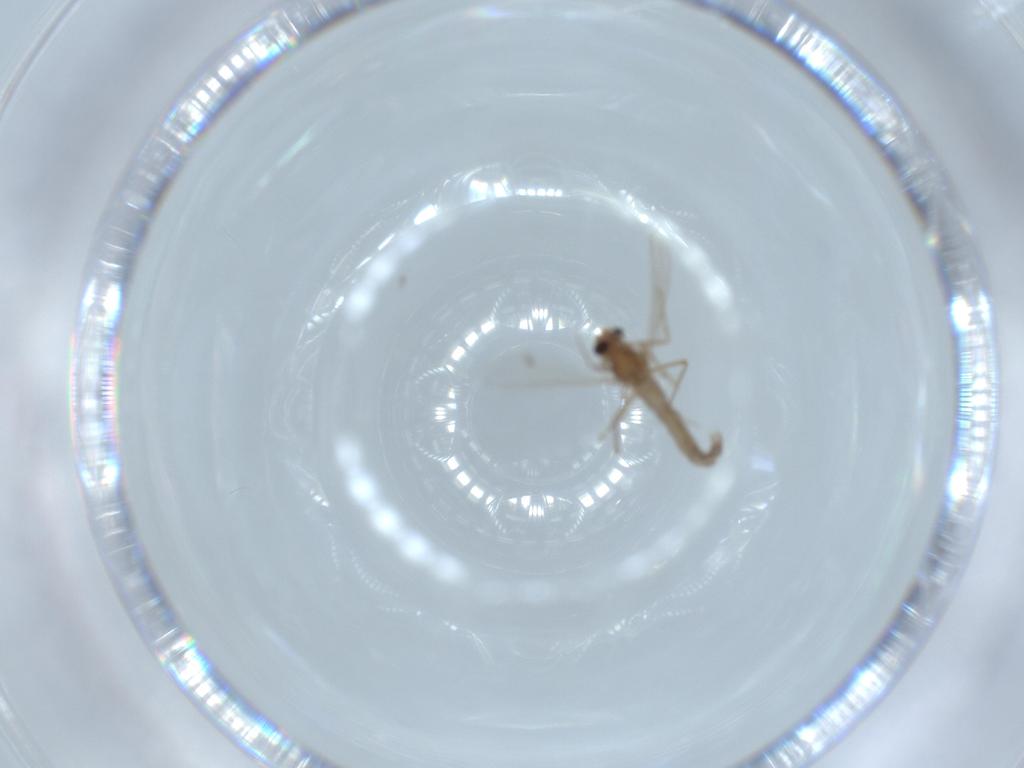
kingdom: Animalia
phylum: Arthropoda
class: Insecta
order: Diptera
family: Chironomidae
